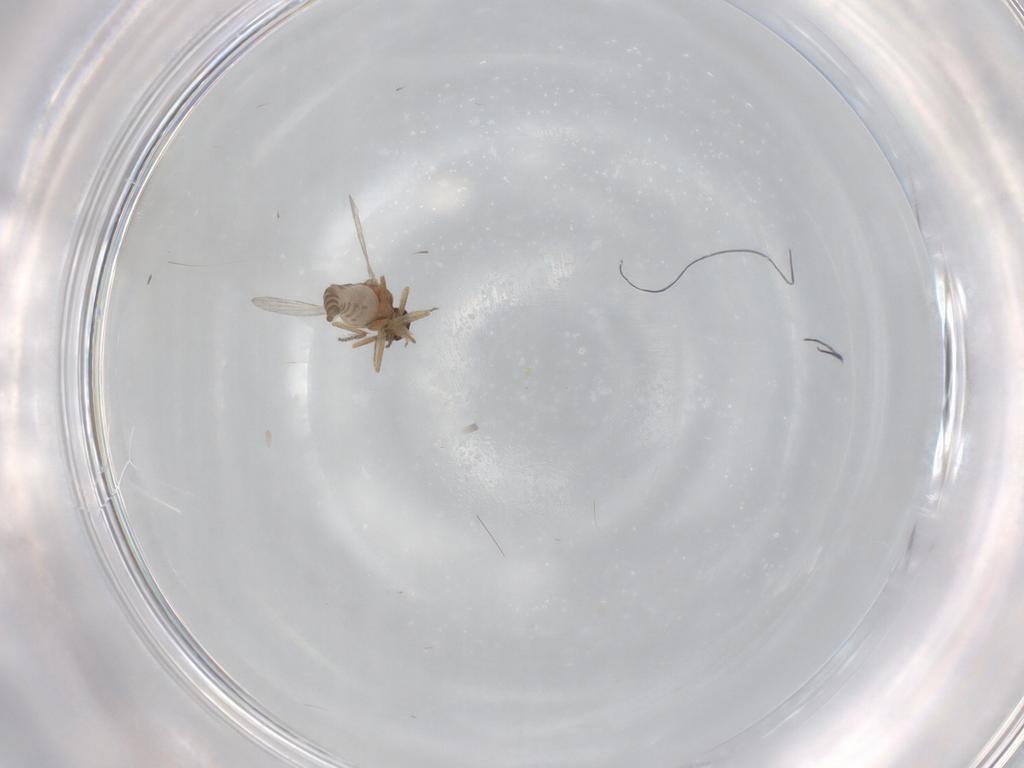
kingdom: Animalia
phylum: Arthropoda
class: Insecta
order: Diptera
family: Ceratopogonidae
